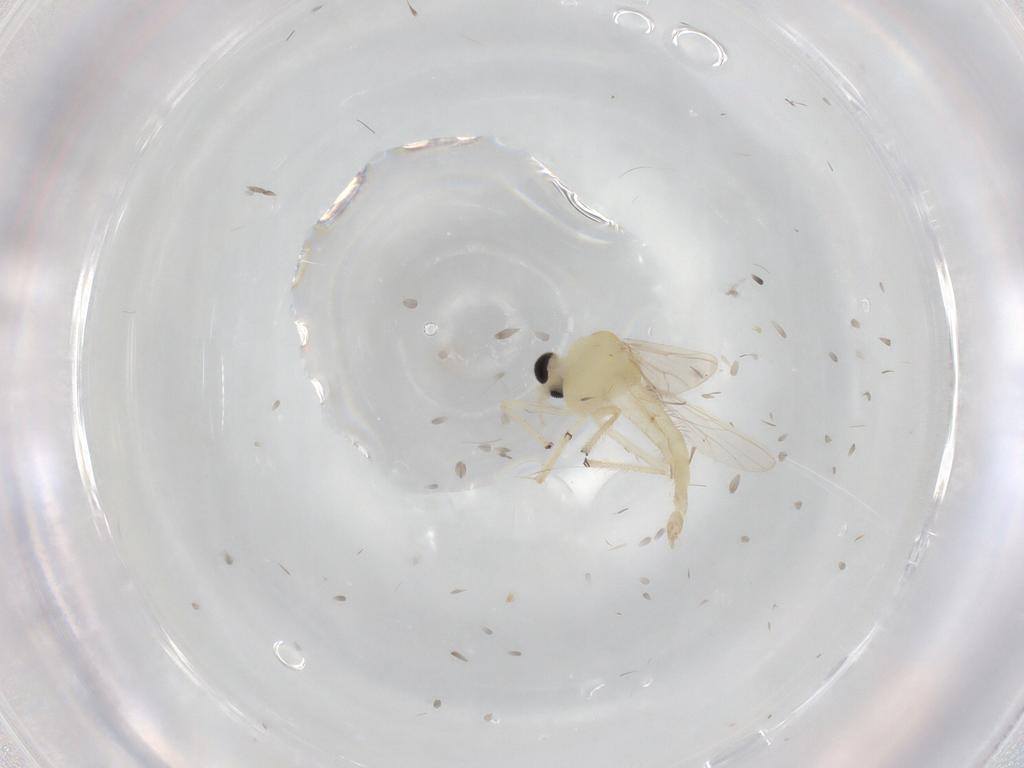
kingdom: Animalia
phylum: Arthropoda
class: Insecta
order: Diptera
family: Chironomidae
